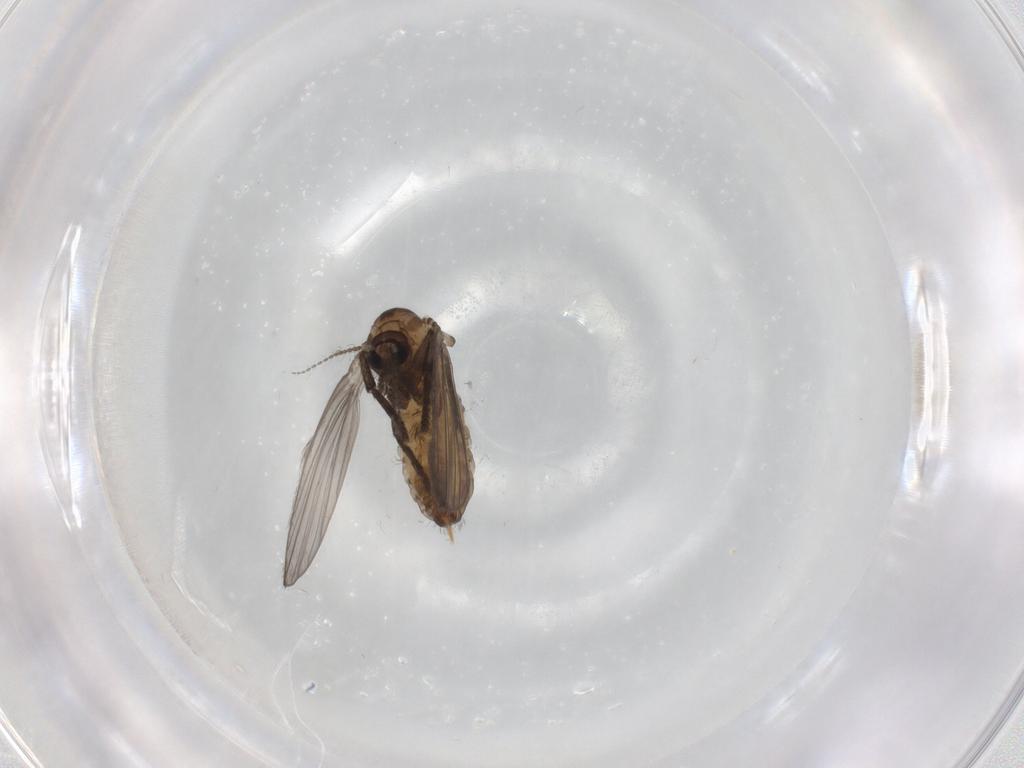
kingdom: Animalia
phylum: Arthropoda
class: Insecta
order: Diptera
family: Psychodidae
